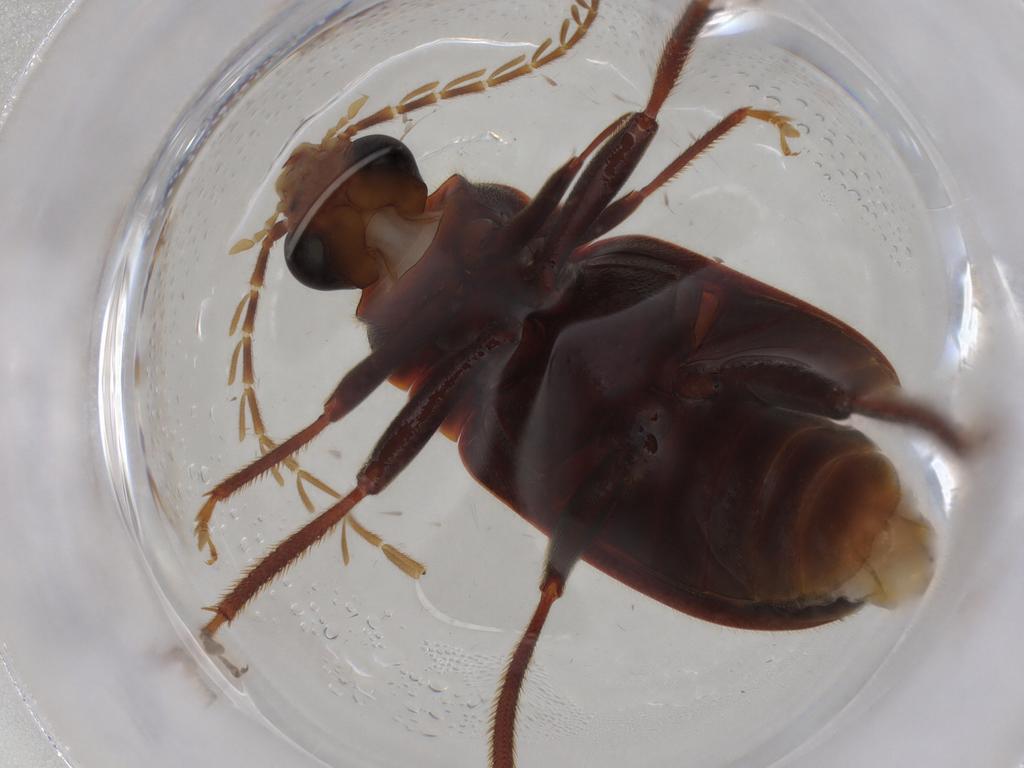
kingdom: Animalia
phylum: Arthropoda
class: Insecta
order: Coleoptera
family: Ptilodactylidae
